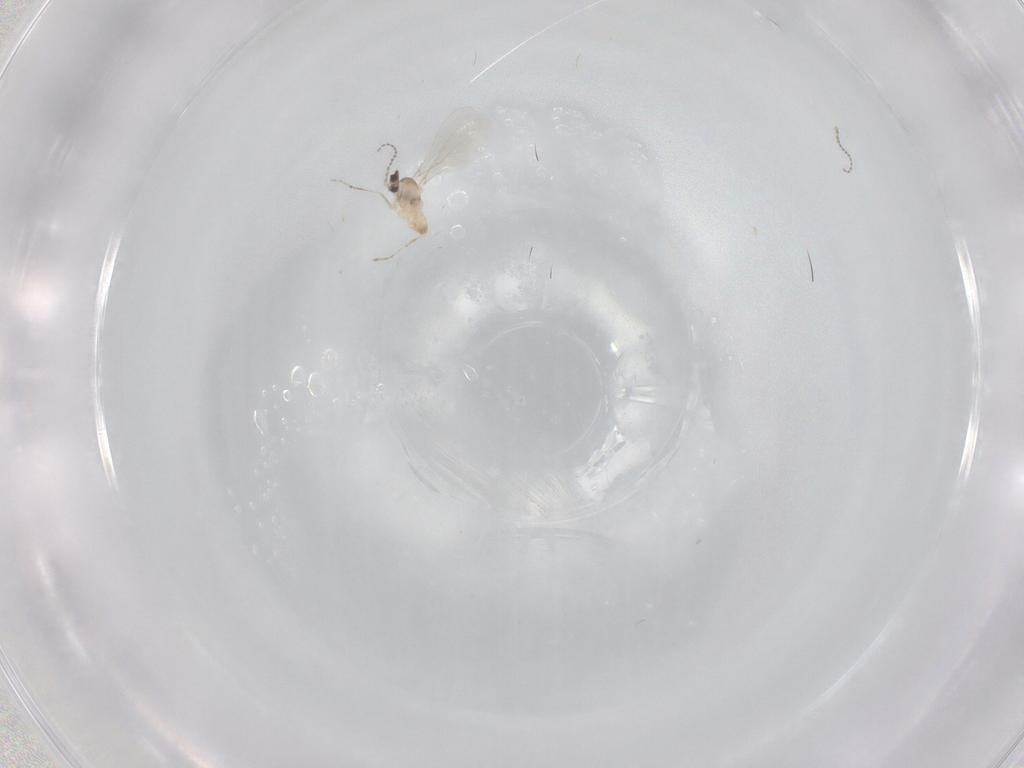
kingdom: Animalia
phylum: Arthropoda
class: Insecta
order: Diptera
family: Cecidomyiidae
